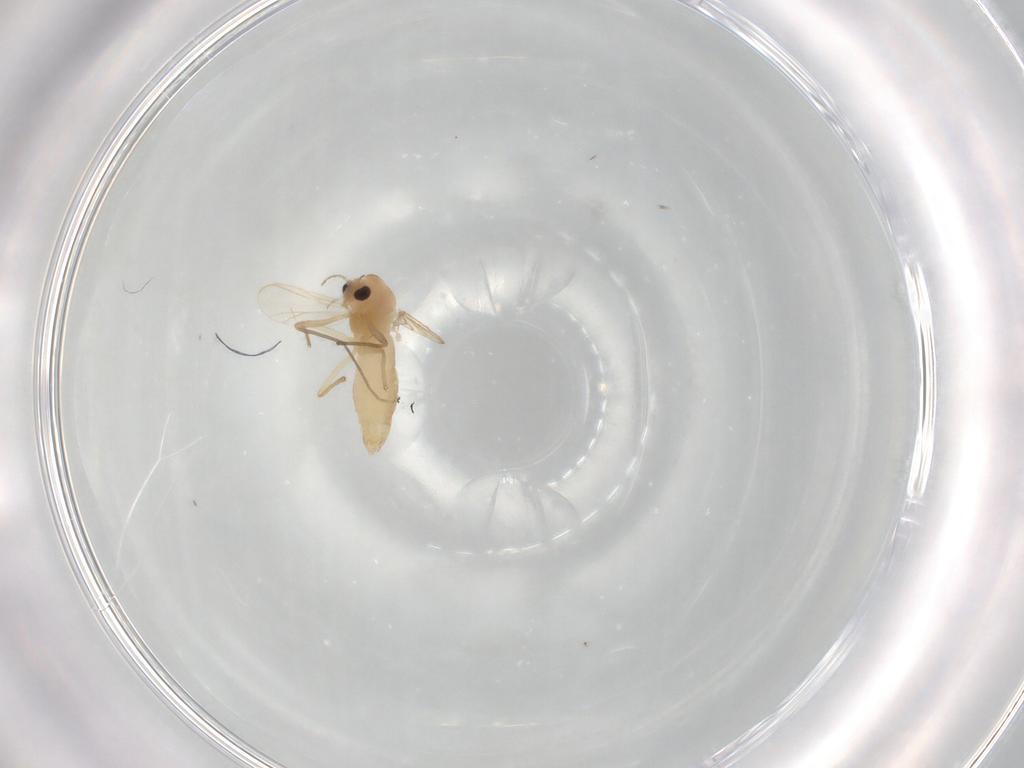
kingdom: Animalia
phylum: Arthropoda
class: Insecta
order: Diptera
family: Chironomidae
